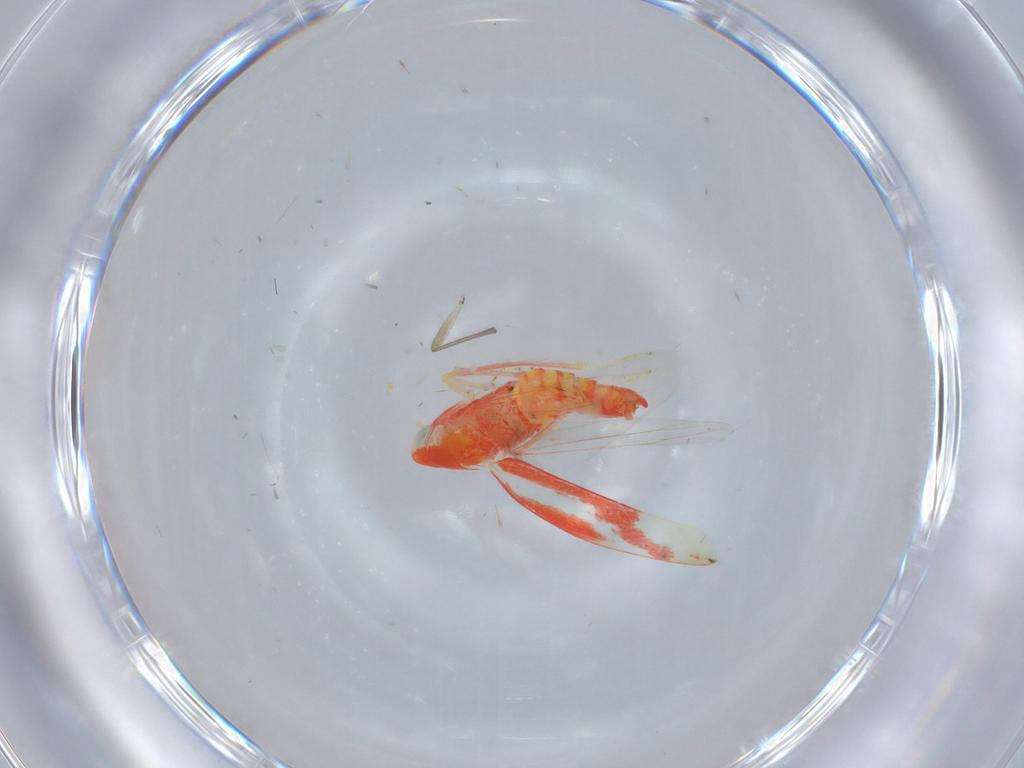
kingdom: Animalia
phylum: Arthropoda
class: Insecta
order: Hemiptera
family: Cicadellidae
